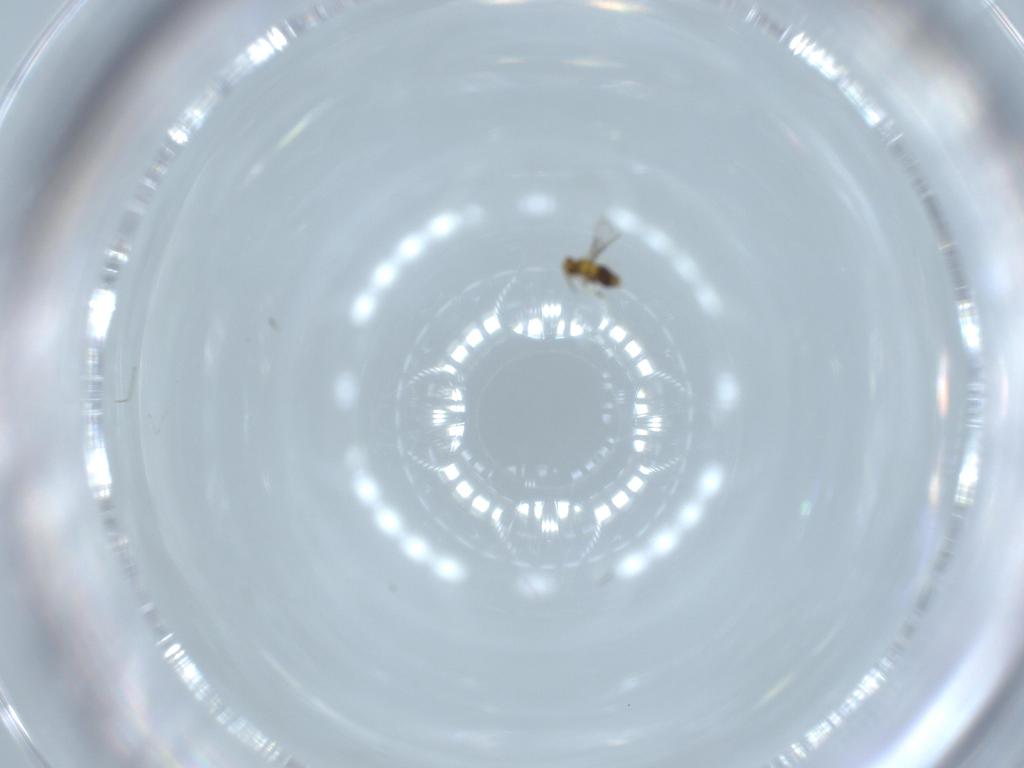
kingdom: Animalia
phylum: Arthropoda
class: Insecta
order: Hymenoptera
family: Aphelinidae
